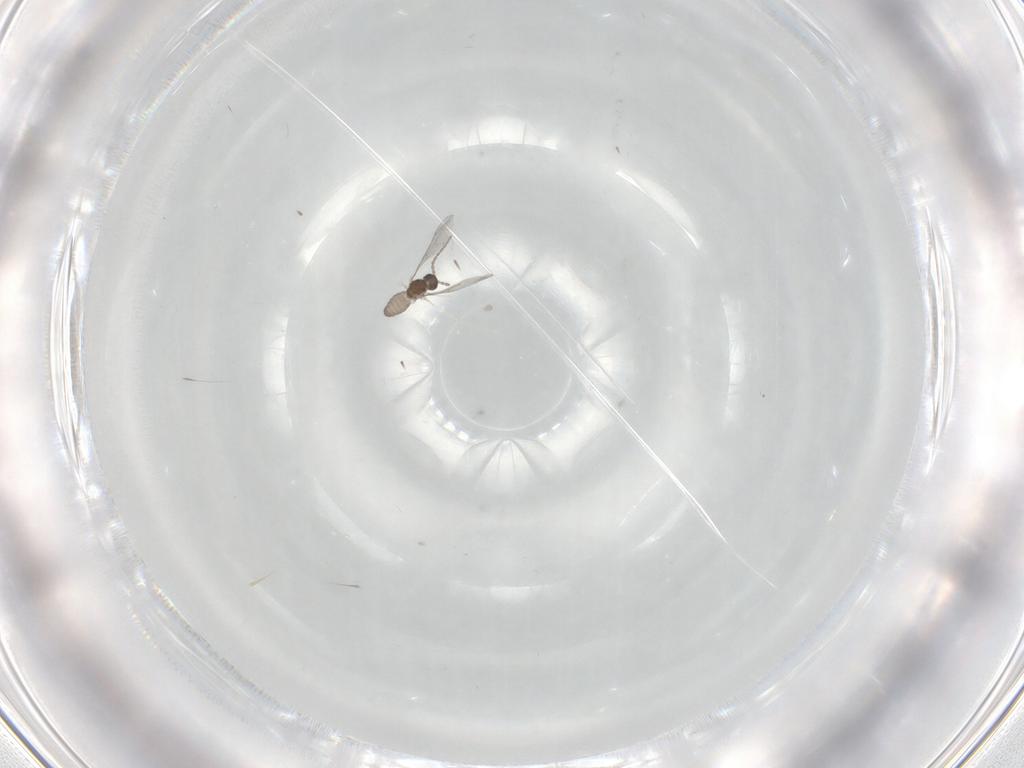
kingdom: Animalia
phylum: Arthropoda
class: Insecta
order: Diptera
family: Cecidomyiidae
